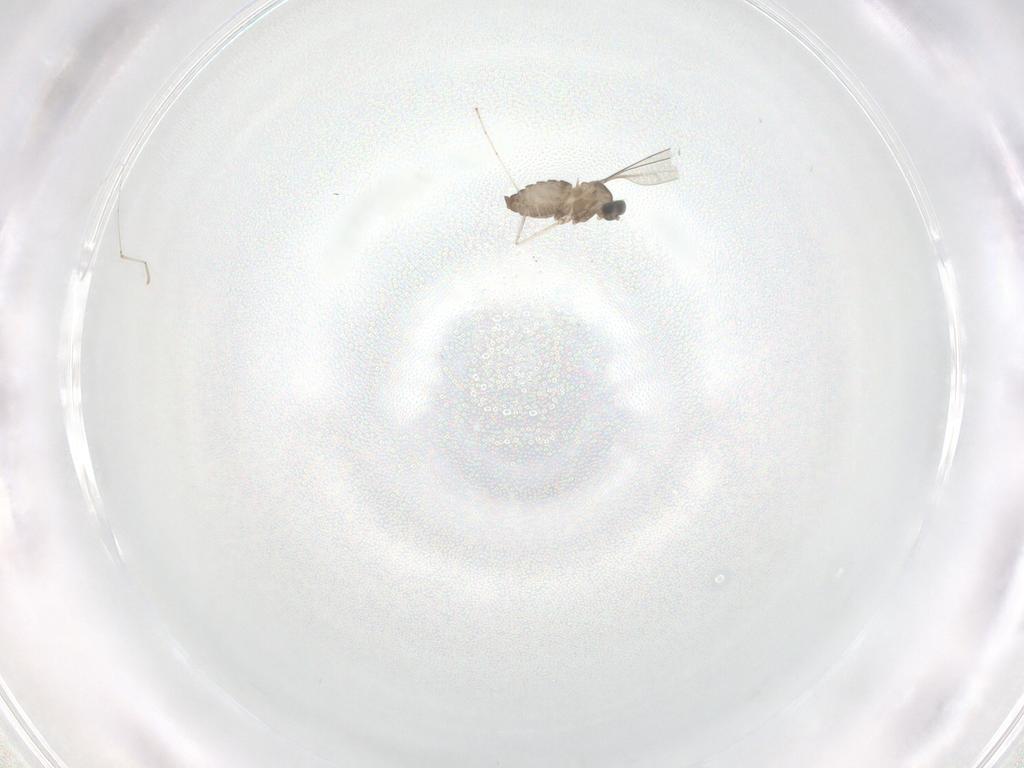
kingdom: Animalia
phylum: Arthropoda
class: Insecta
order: Diptera
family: Cecidomyiidae
